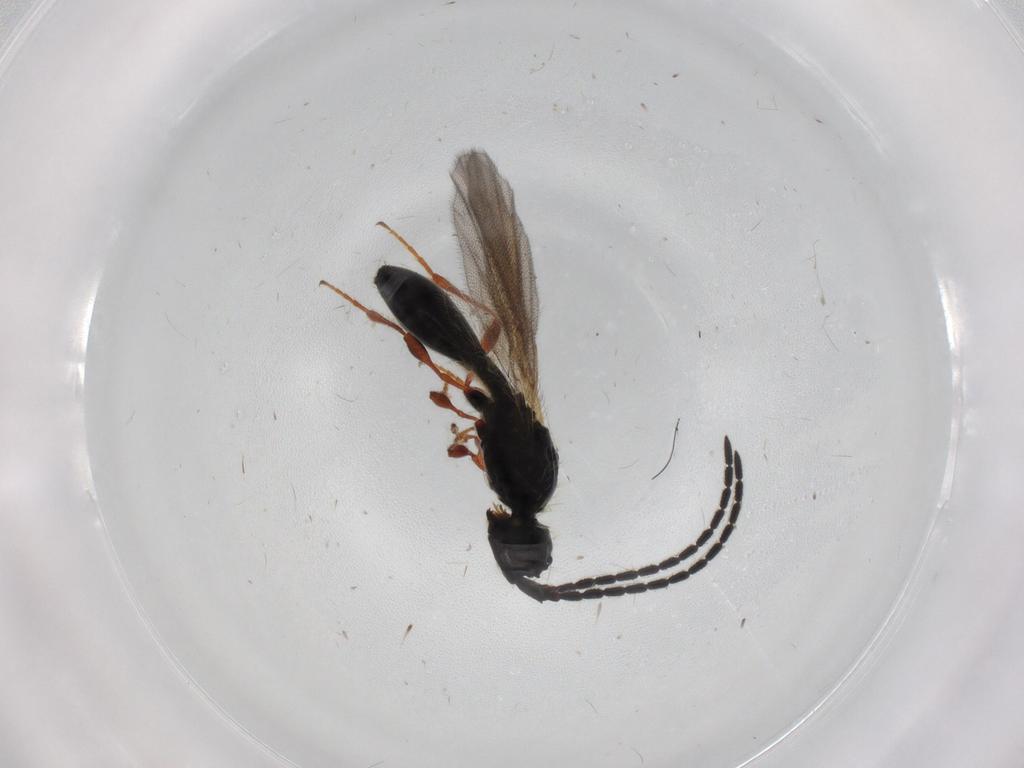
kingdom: Animalia
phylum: Arthropoda
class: Insecta
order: Hymenoptera
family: Diapriidae
